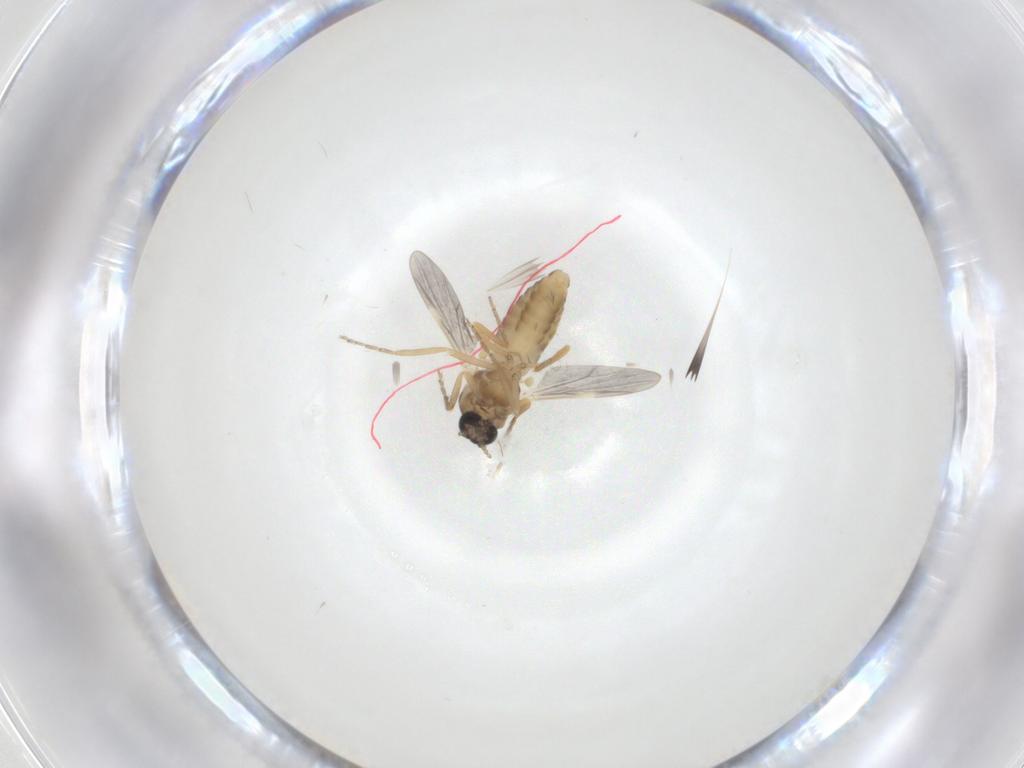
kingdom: Animalia
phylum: Arthropoda
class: Insecta
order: Diptera
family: Ceratopogonidae
